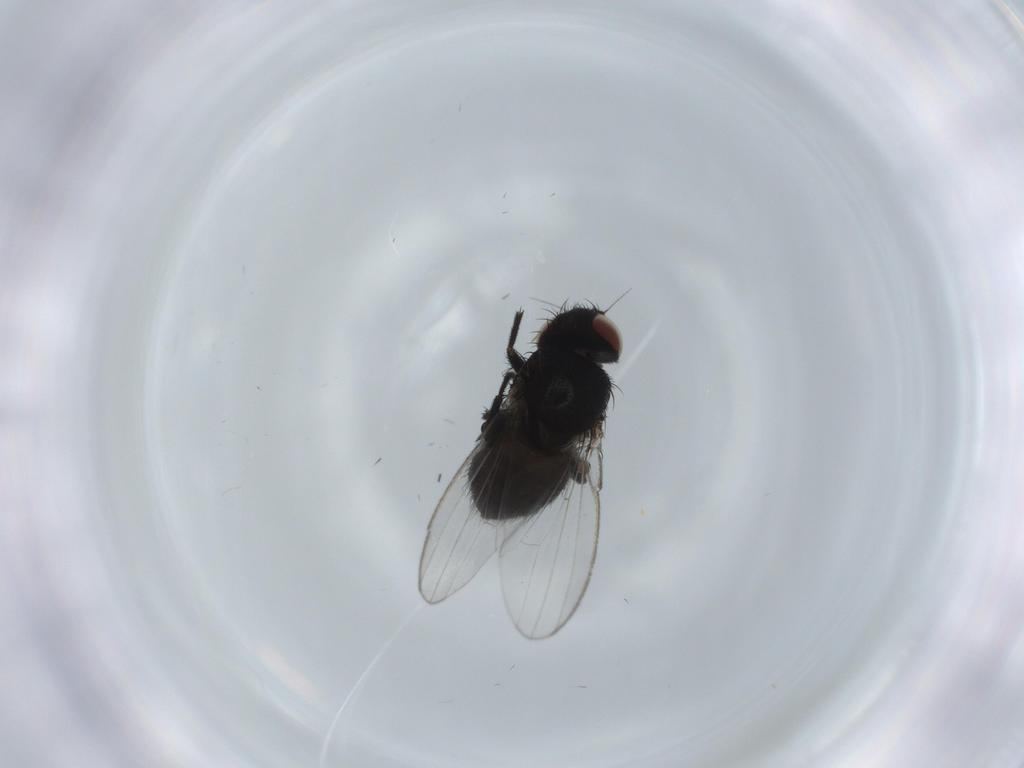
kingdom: Animalia
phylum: Arthropoda
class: Insecta
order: Diptera
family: Milichiidae
